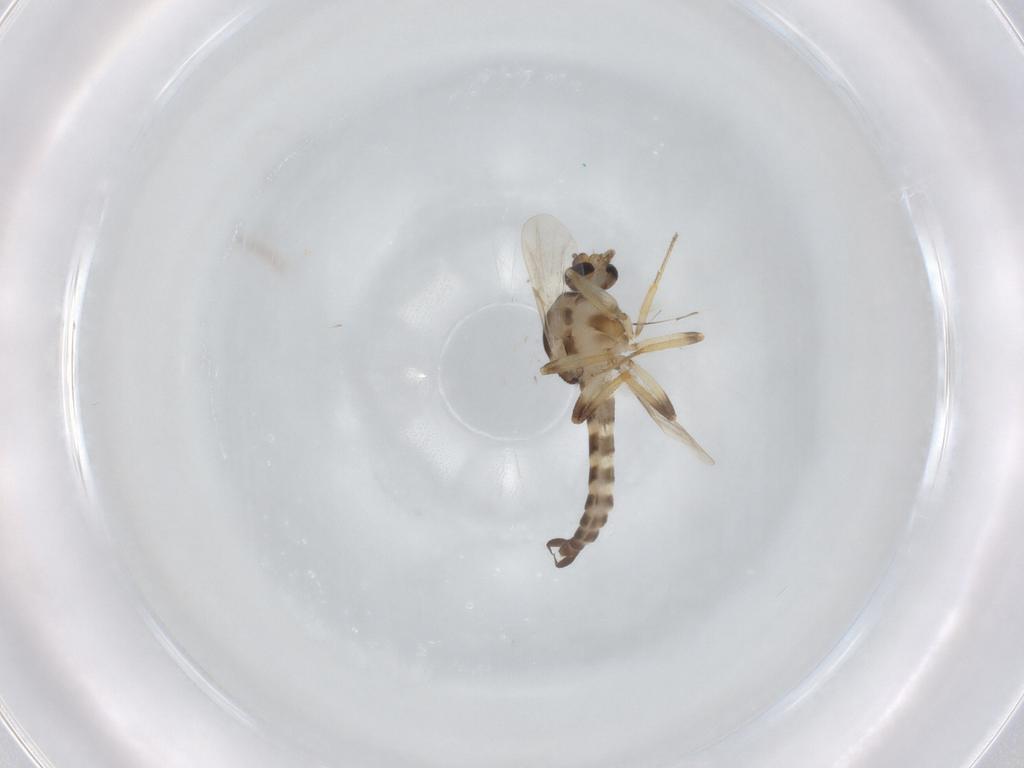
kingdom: Animalia
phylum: Arthropoda
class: Insecta
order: Diptera
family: Ceratopogonidae
